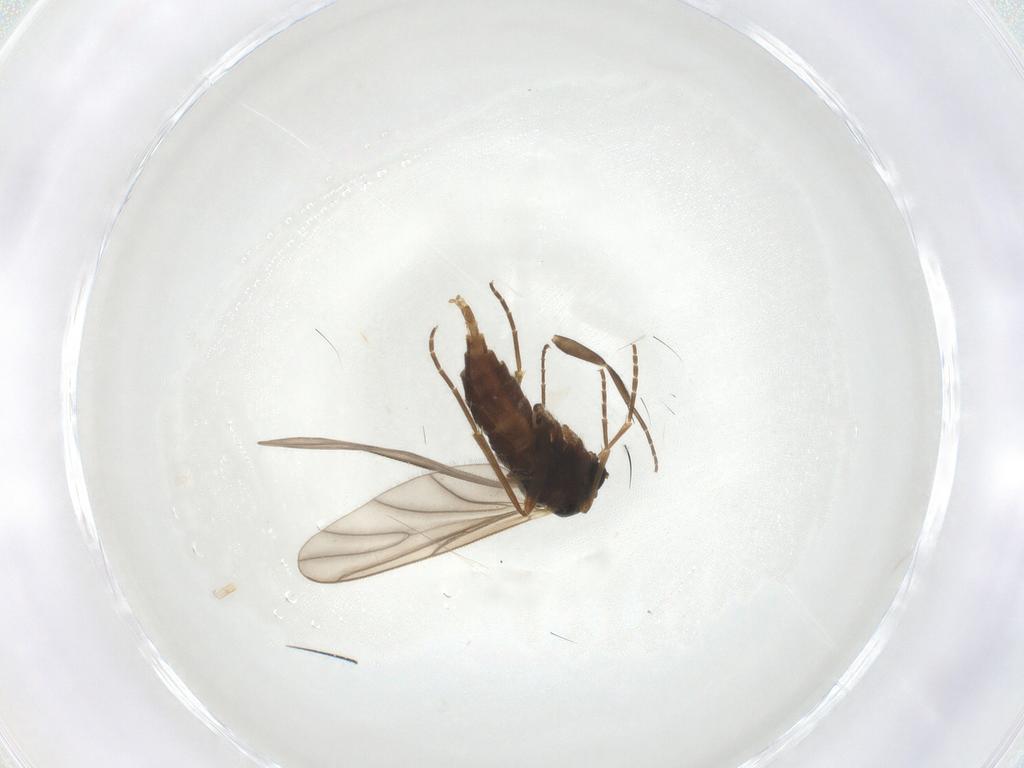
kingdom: Animalia
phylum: Arthropoda
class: Insecta
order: Diptera
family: Sciaridae
